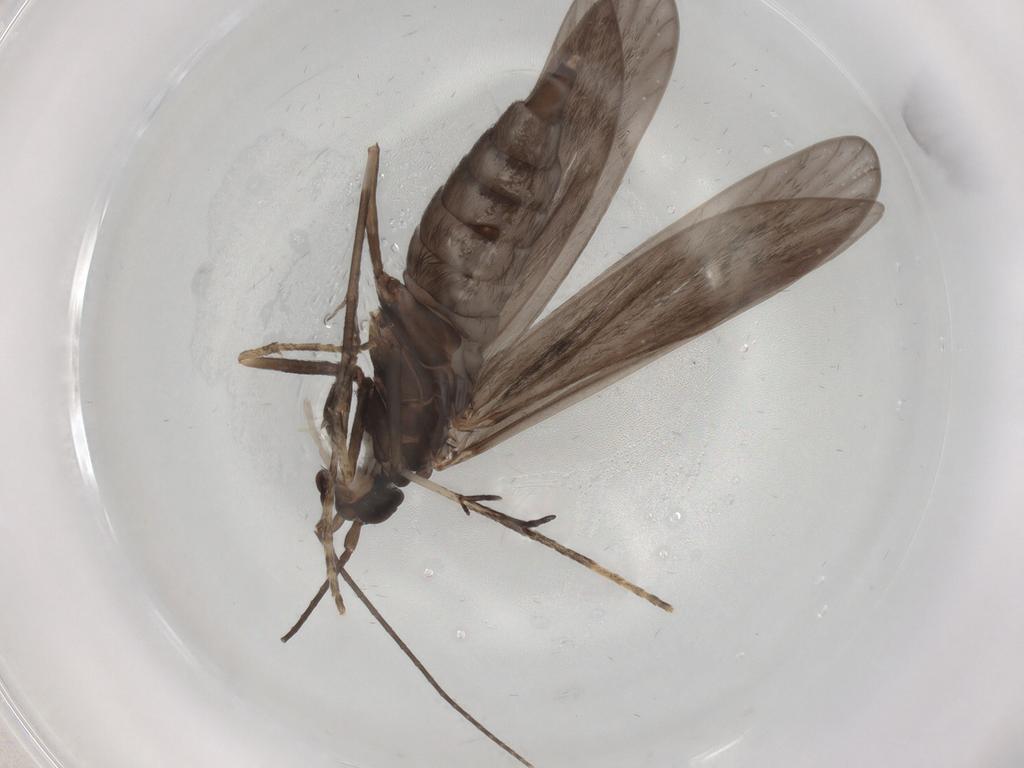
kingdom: Animalia
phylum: Arthropoda
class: Insecta
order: Trichoptera
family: Xiphocentronidae
